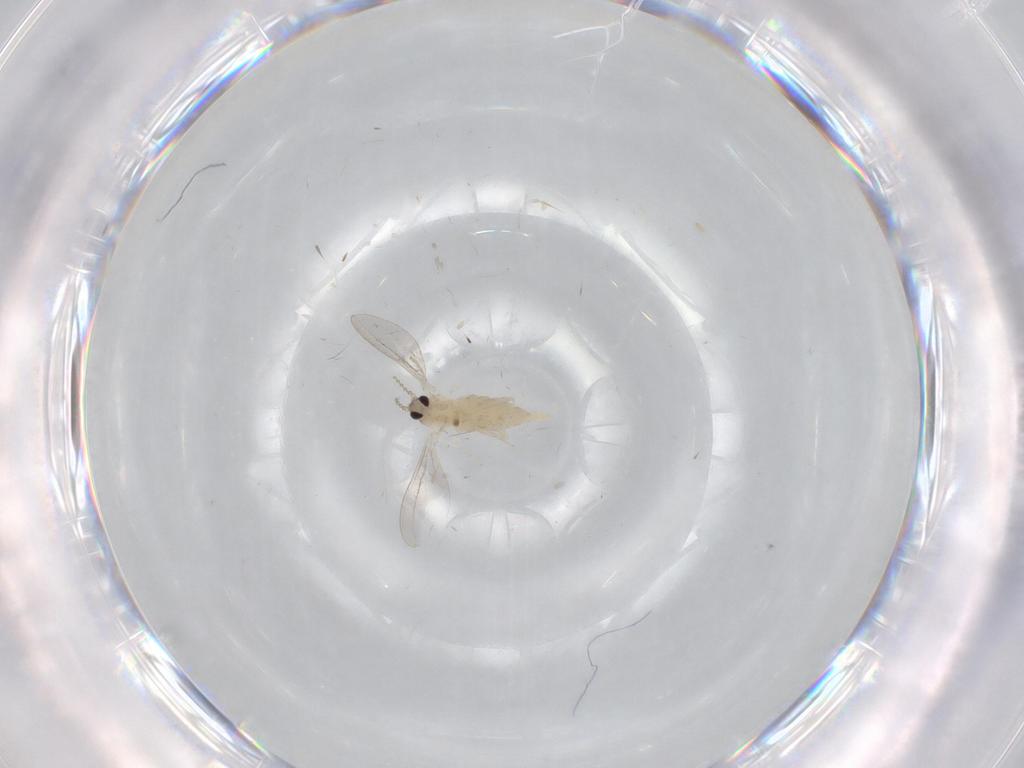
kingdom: Animalia
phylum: Arthropoda
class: Insecta
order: Diptera
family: Cecidomyiidae
